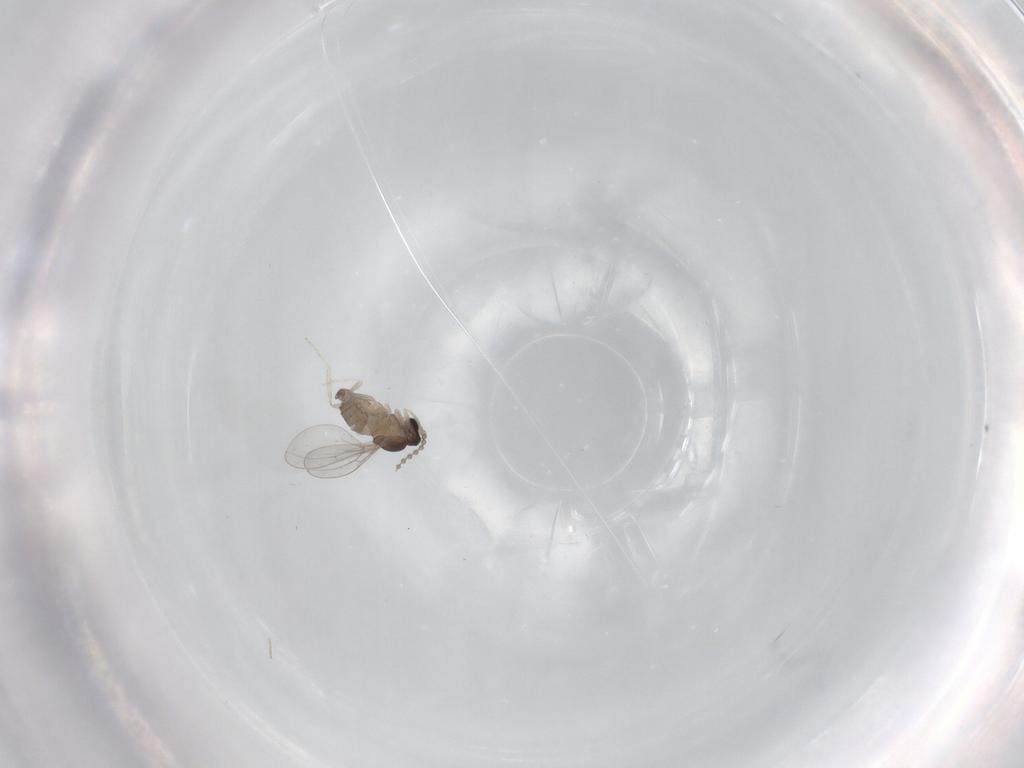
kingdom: Animalia
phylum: Arthropoda
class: Insecta
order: Diptera
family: Cecidomyiidae
